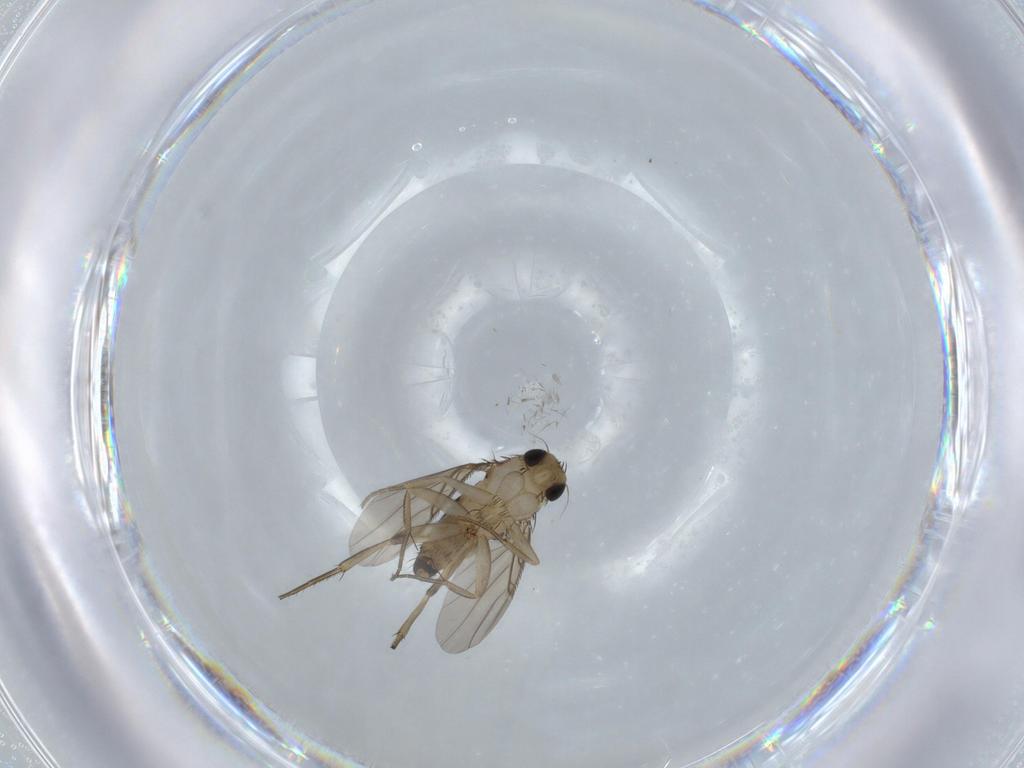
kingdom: Animalia
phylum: Arthropoda
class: Insecta
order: Diptera
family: Phoridae
